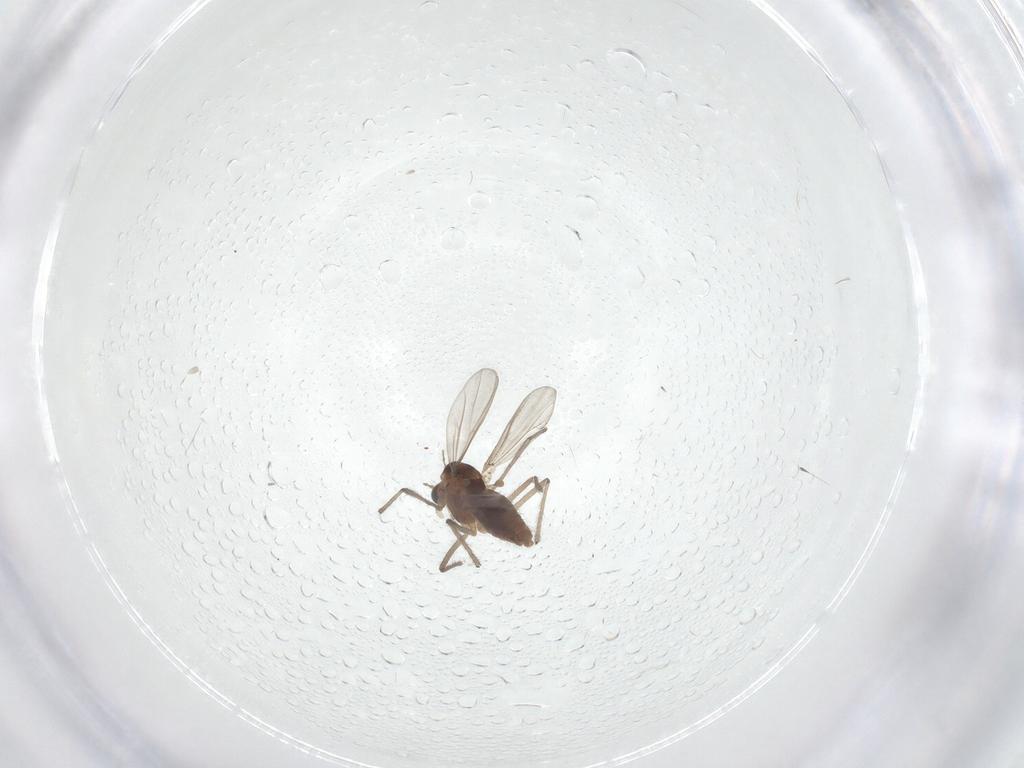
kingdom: Animalia
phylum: Arthropoda
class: Insecta
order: Diptera
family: Chironomidae
